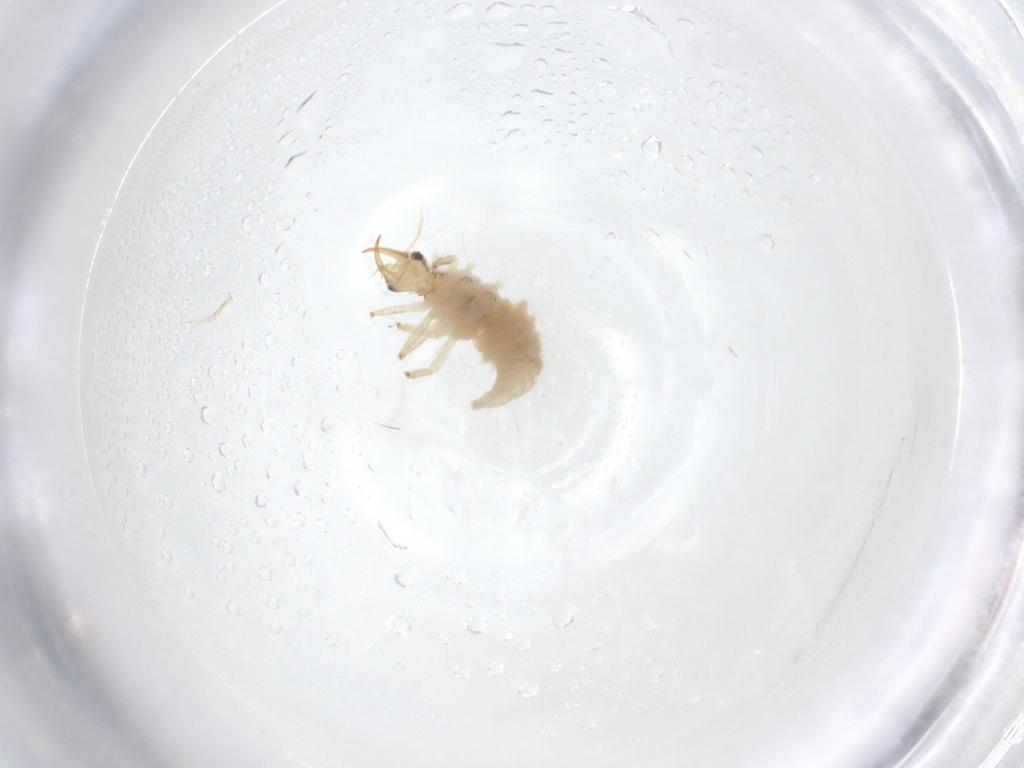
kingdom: Animalia
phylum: Arthropoda
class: Insecta
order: Neuroptera
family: Chrysopidae
